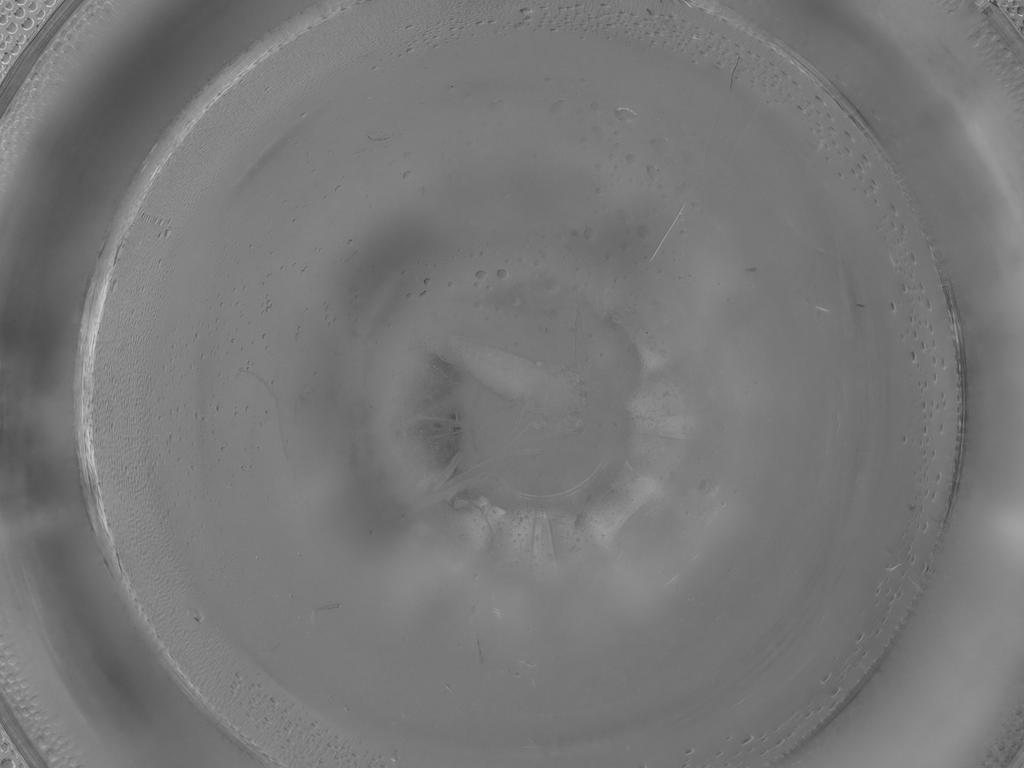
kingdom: Animalia
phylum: Arthropoda
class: Insecta
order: Diptera
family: Ceratopogonidae
